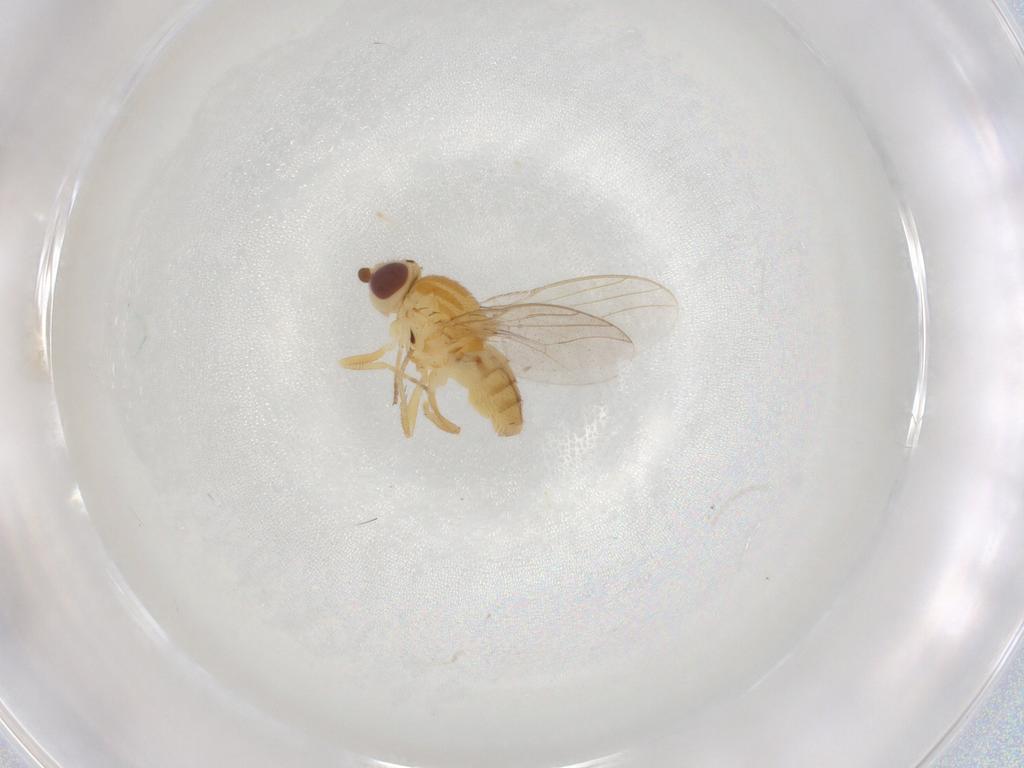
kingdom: Animalia
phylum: Arthropoda
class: Insecta
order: Diptera
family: Chloropidae
